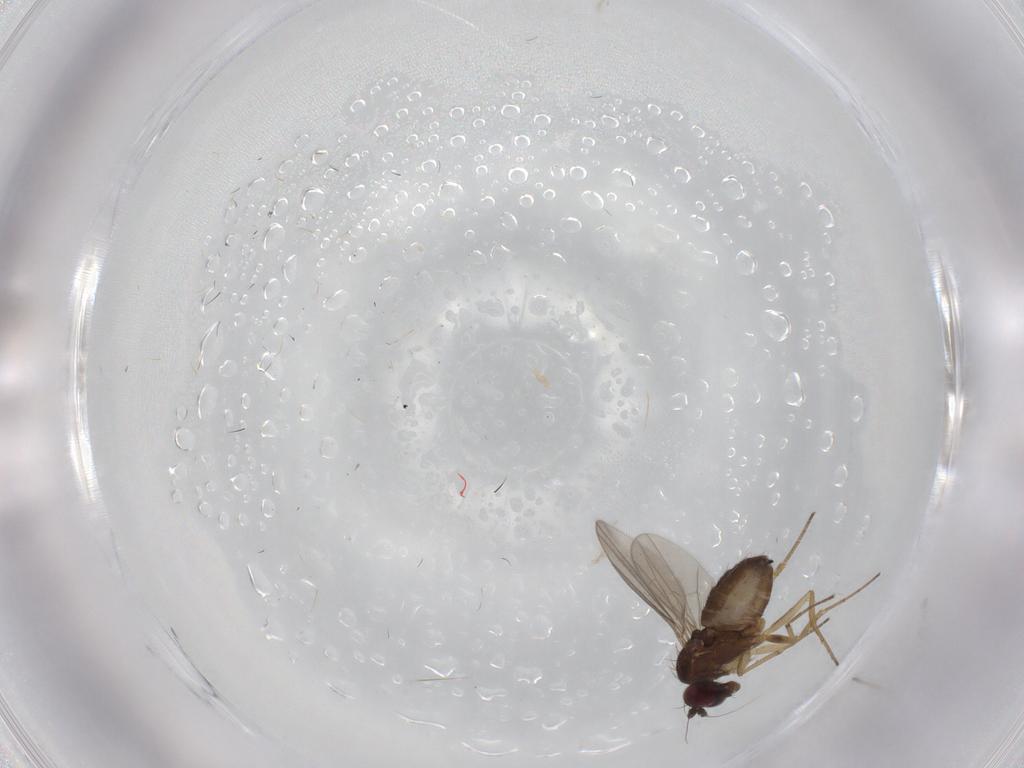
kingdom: Animalia
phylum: Arthropoda
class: Insecta
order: Diptera
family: Dolichopodidae
